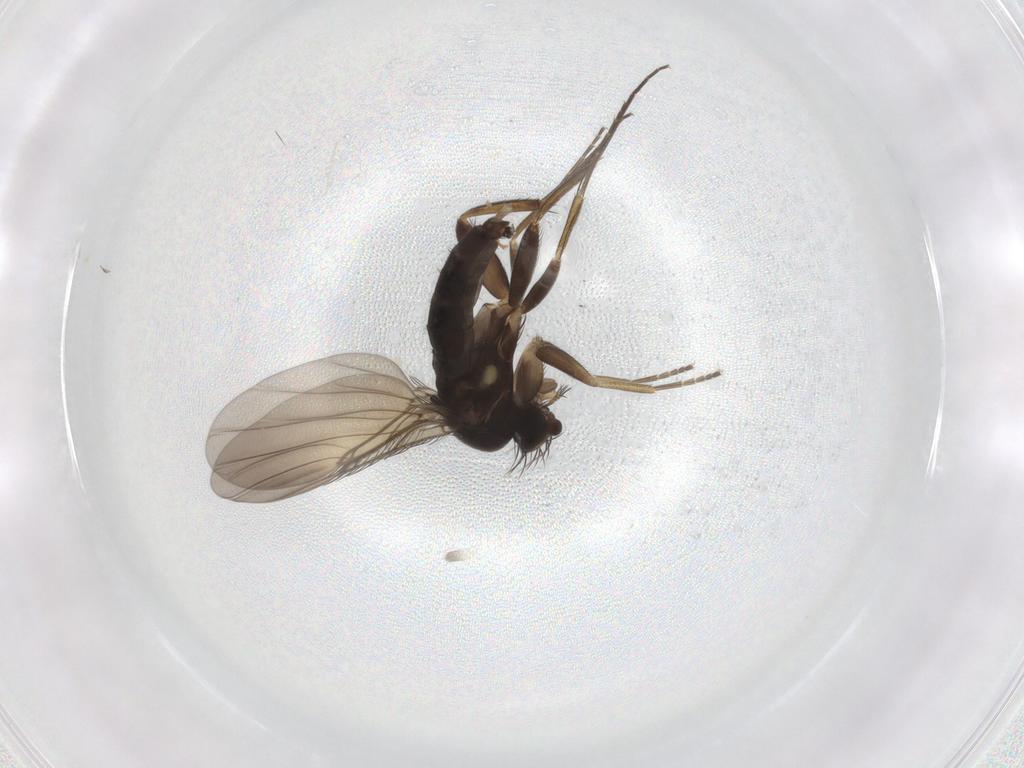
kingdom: Animalia
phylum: Arthropoda
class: Insecta
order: Diptera
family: Phoridae
